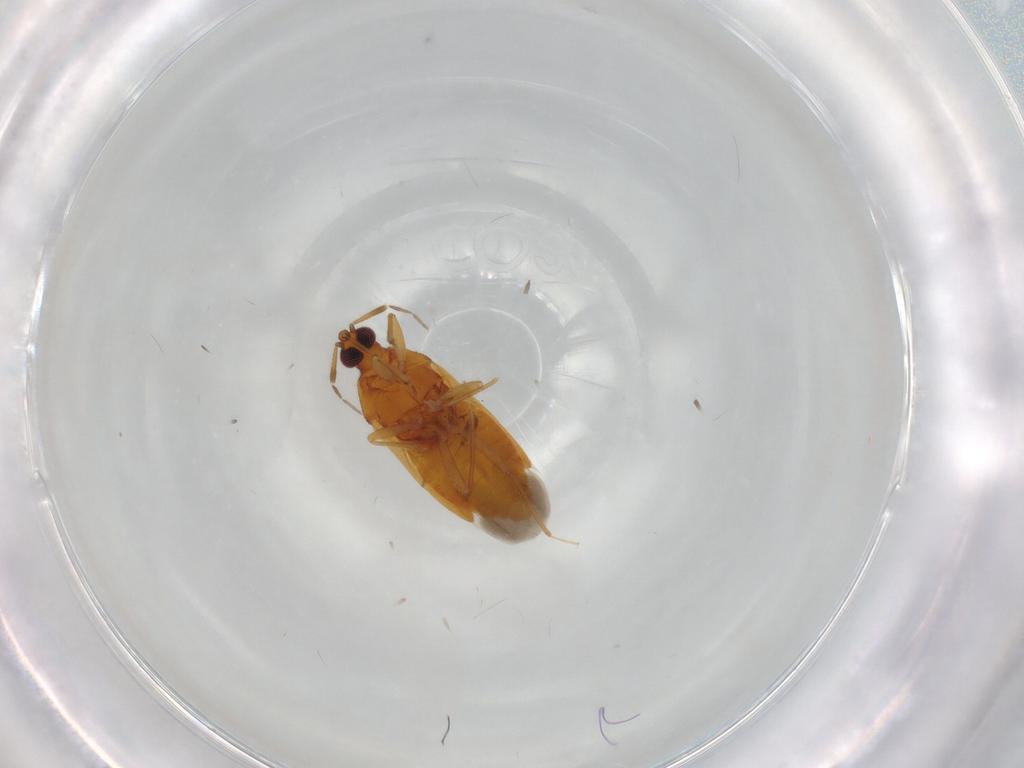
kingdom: Animalia
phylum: Arthropoda
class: Insecta
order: Hemiptera
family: Anthocoridae
